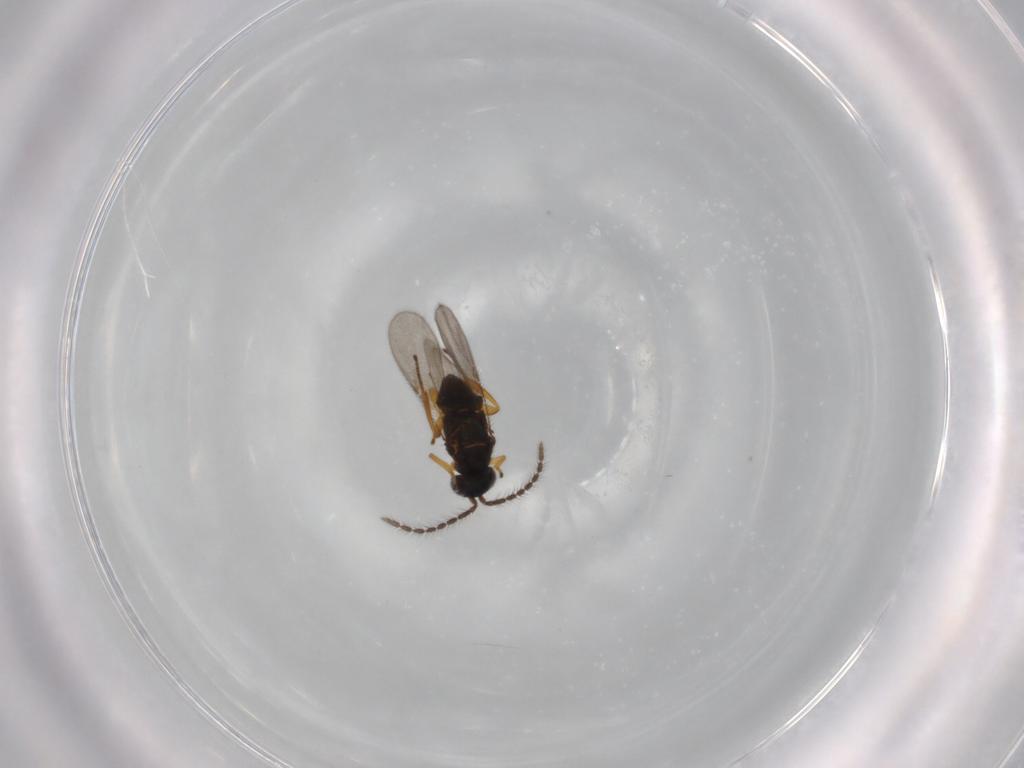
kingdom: Animalia
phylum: Arthropoda
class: Insecta
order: Hymenoptera
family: Encyrtidae
